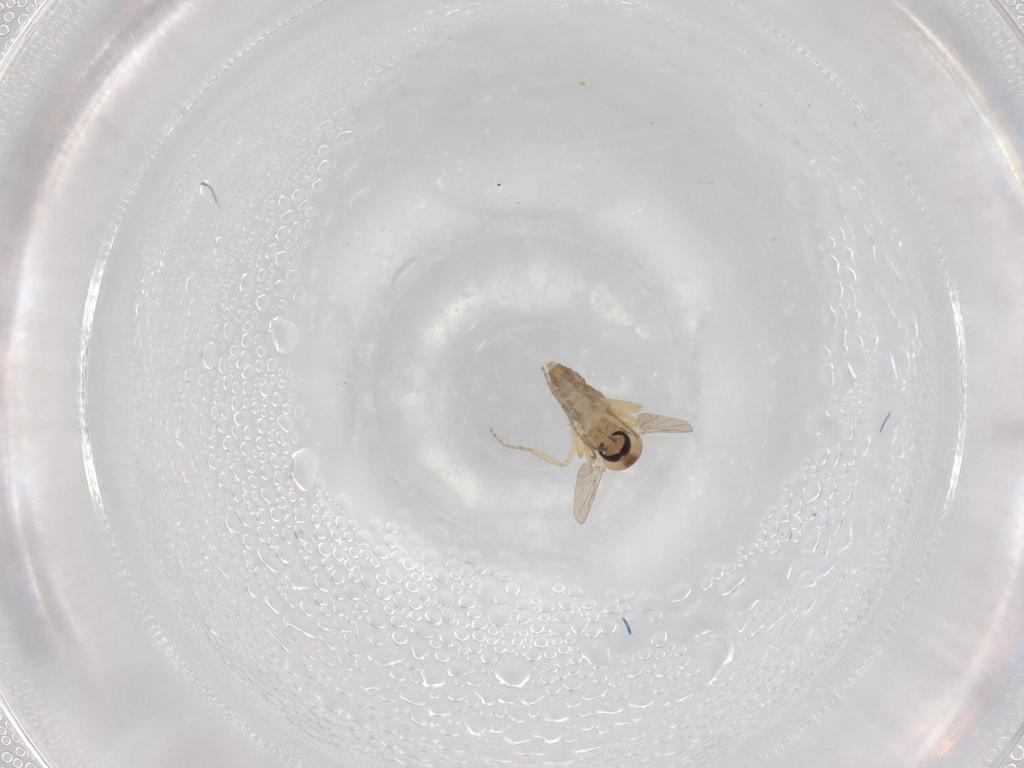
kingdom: Animalia
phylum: Arthropoda
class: Insecta
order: Diptera
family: Ceratopogonidae
